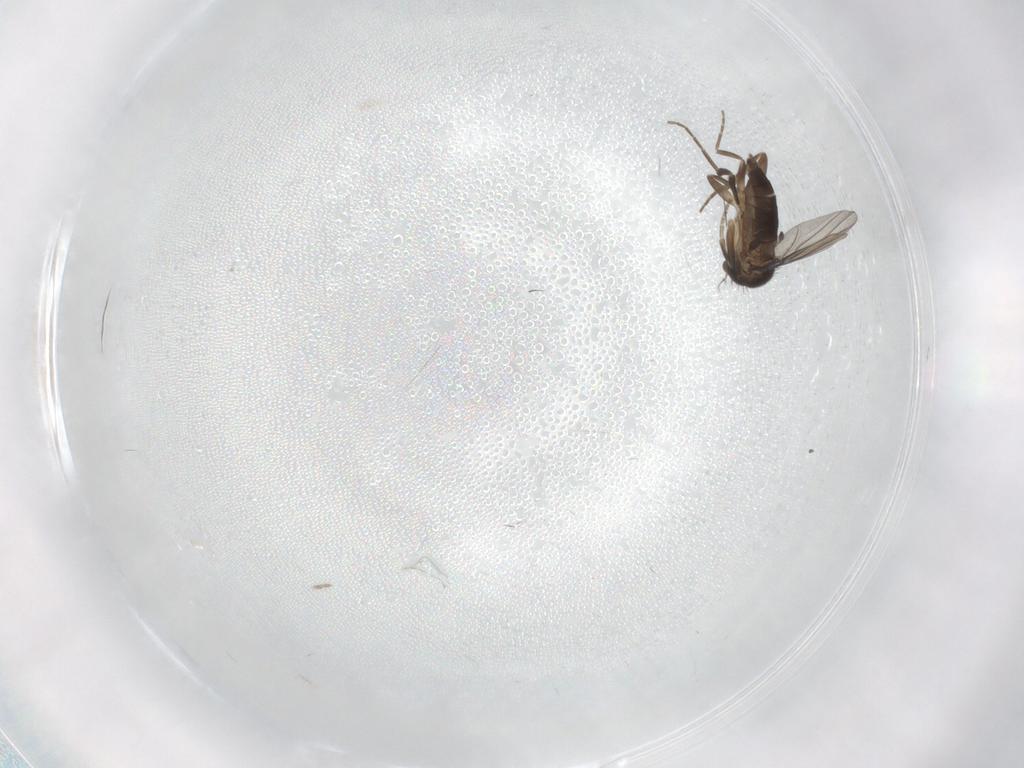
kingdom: Animalia
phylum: Arthropoda
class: Insecta
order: Diptera
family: Phoridae
